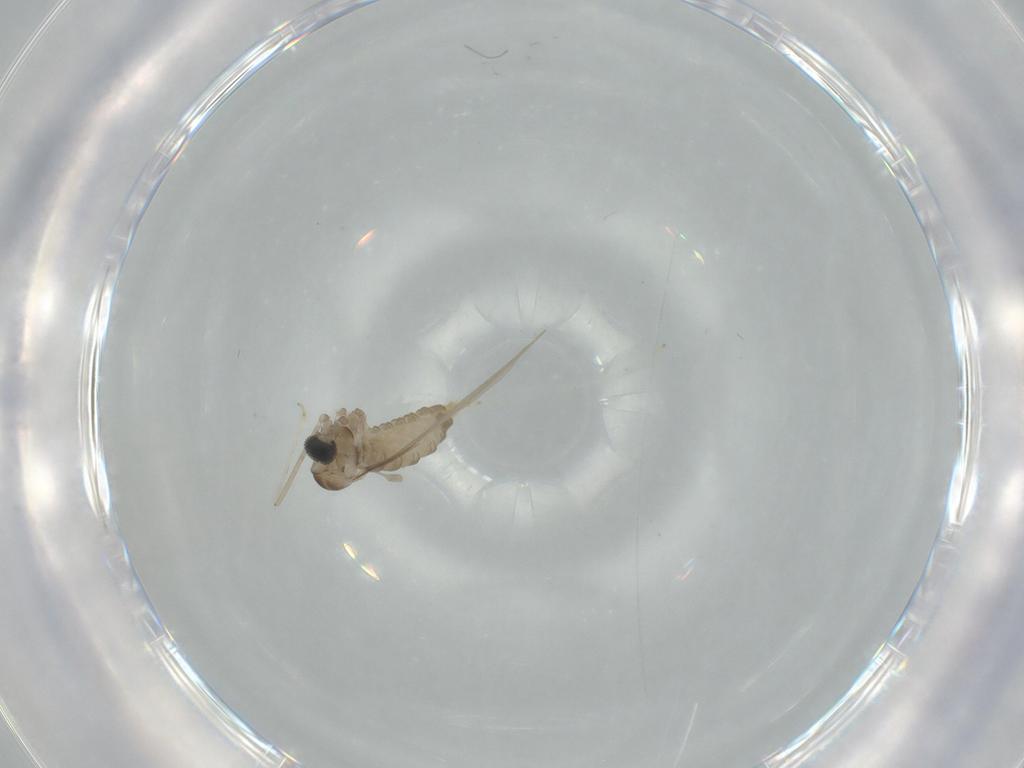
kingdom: Animalia
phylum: Arthropoda
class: Insecta
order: Diptera
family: Cecidomyiidae
